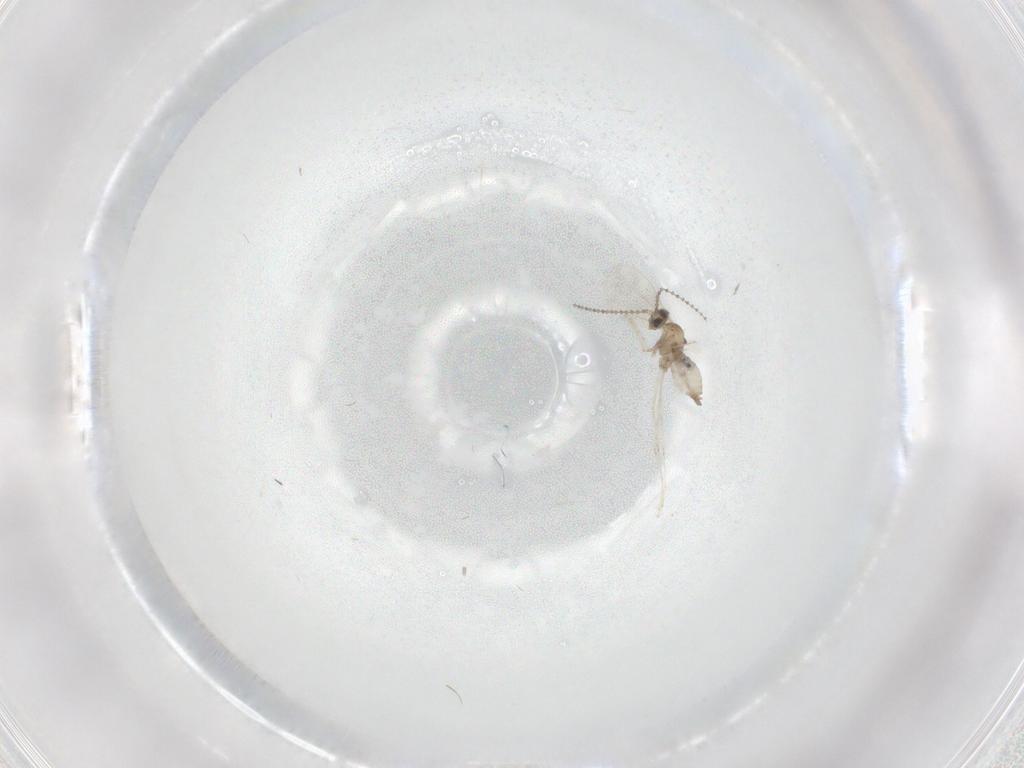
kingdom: Animalia
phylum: Arthropoda
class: Insecta
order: Diptera
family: Cecidomyiidae
